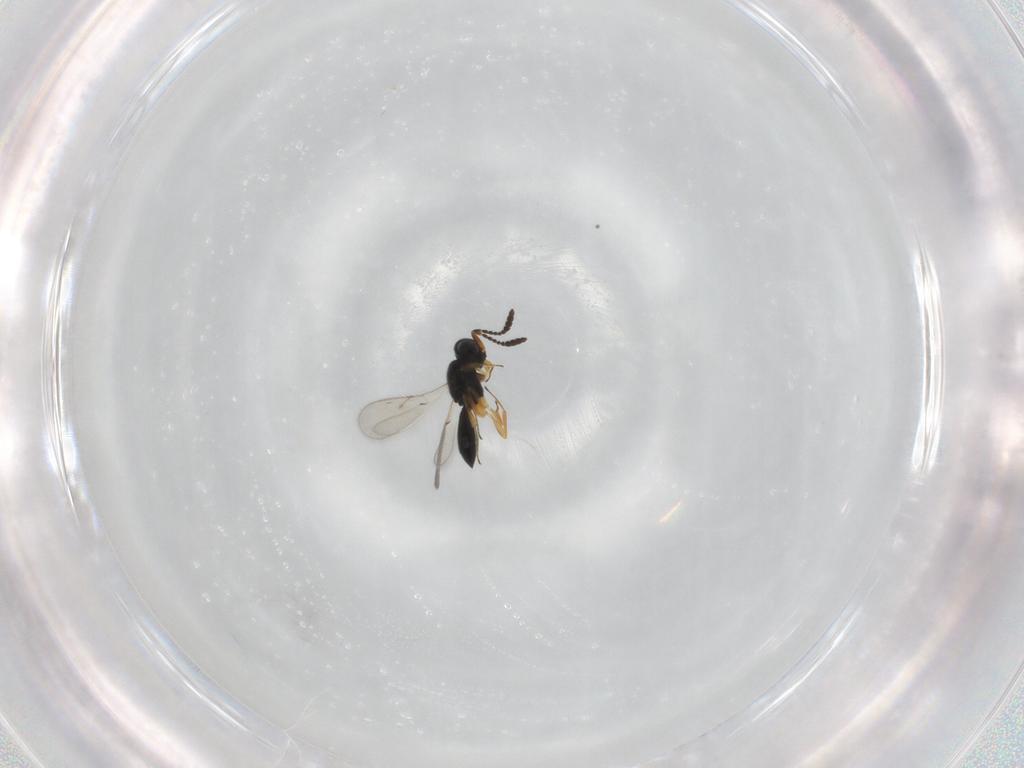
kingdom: Animalia
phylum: Arthropoda
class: Insecta
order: Hymenoptera
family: Scelionidae
